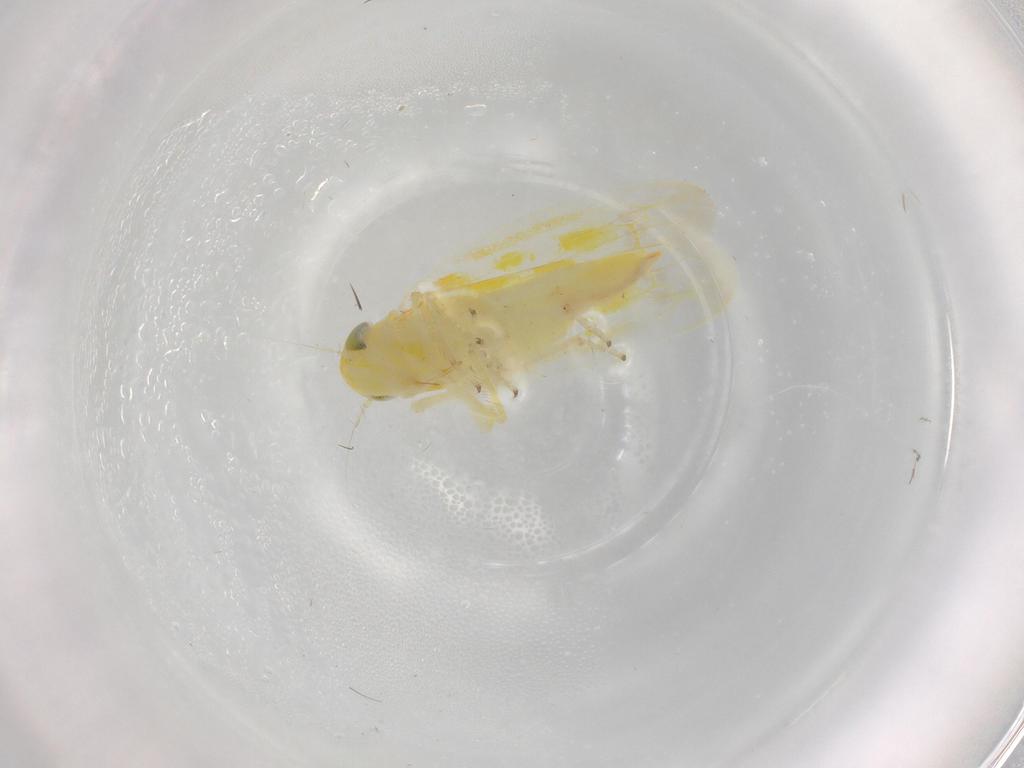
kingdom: Animalia
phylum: Arthropoda
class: Insecta
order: Hemiptera
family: Cicadellidae
